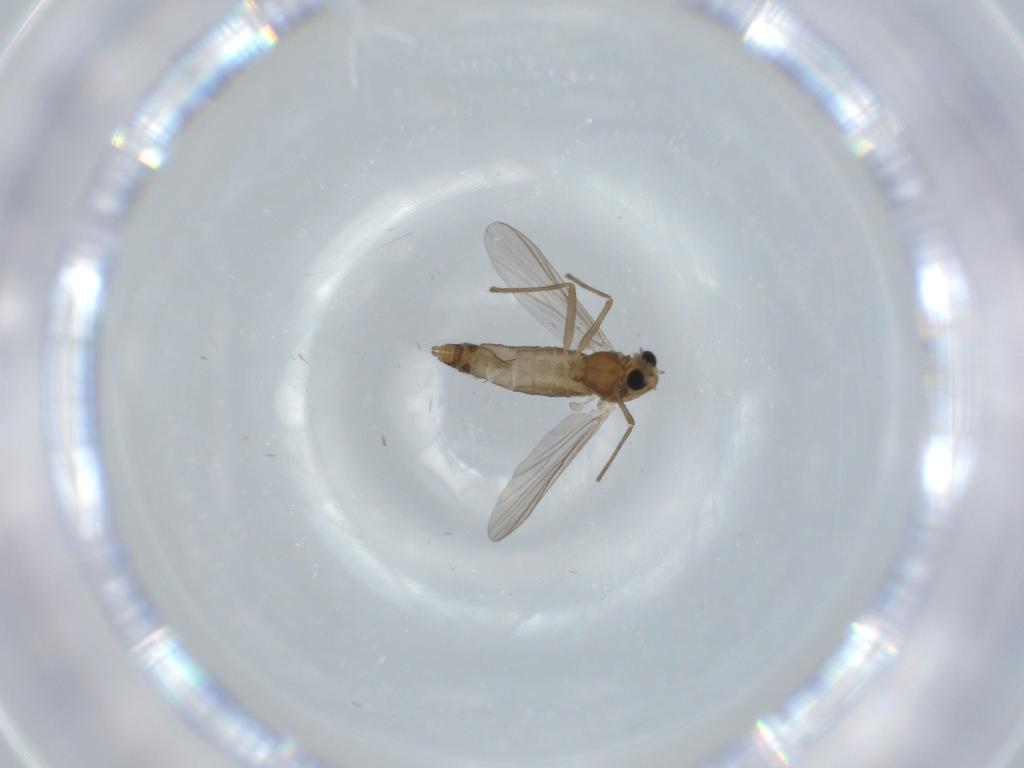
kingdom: Animalia
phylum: Arthropoda
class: Insecta
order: Diptera
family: Chironomidae
